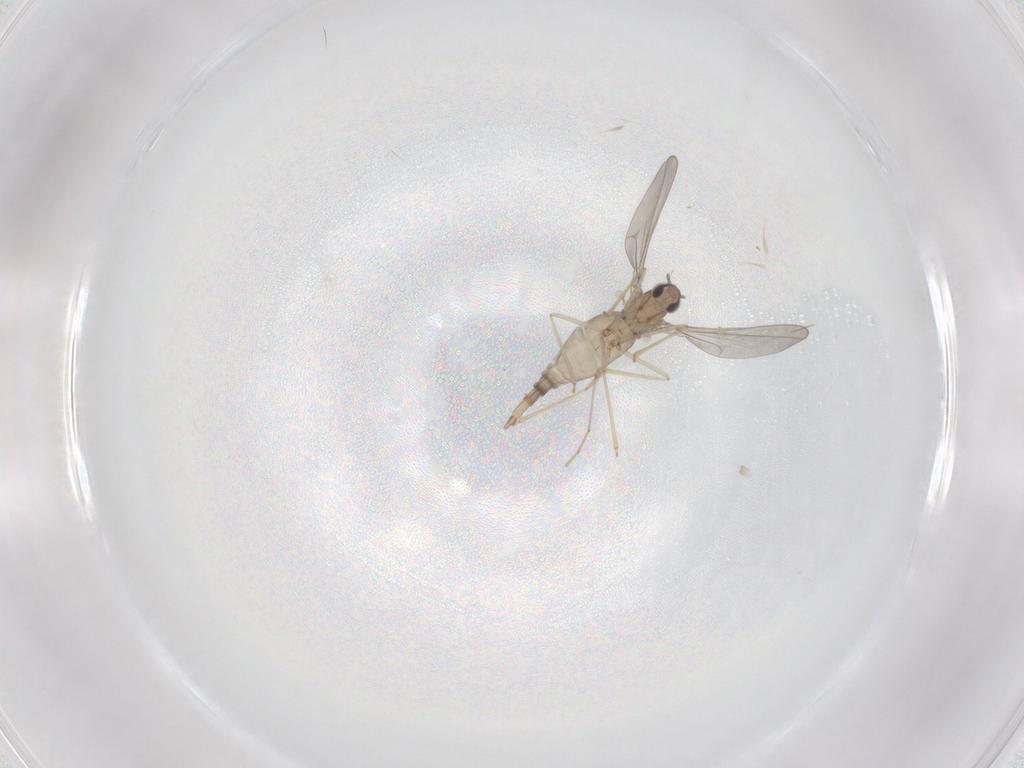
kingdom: Animalia
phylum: Arthropoda
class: Insecta
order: Diptera
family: Cecidomyiidae
